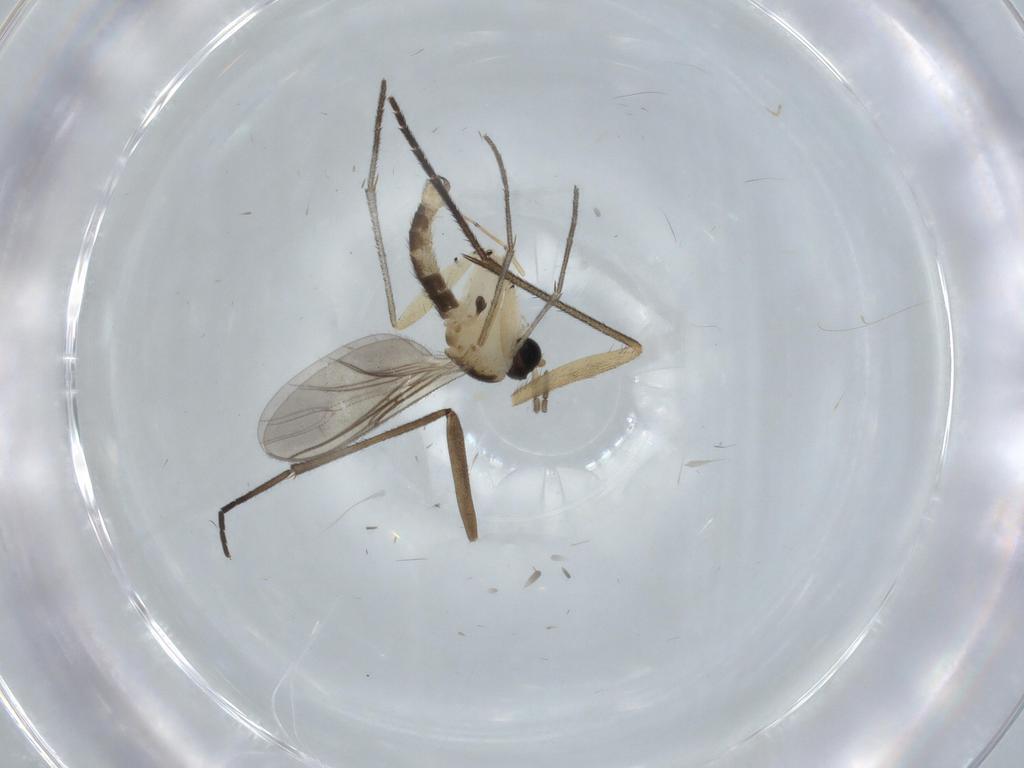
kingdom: Animalia
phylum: Arthropoda
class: Insecta
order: Diptera
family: Sciaridae
